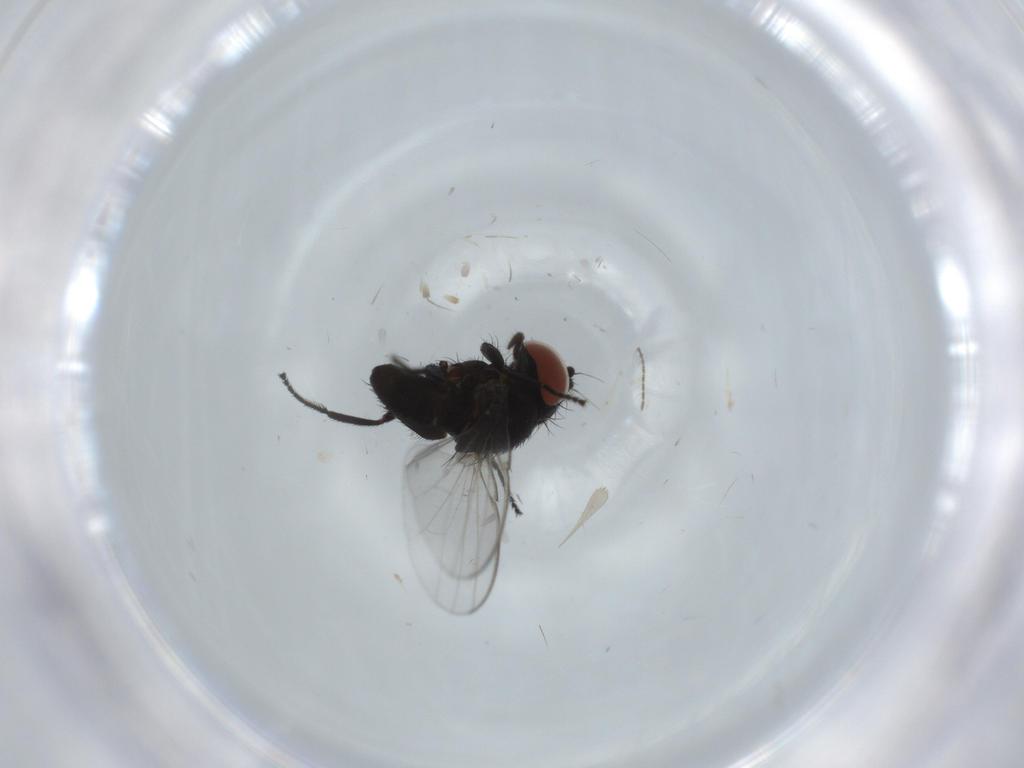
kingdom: Animalia
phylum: Arthropoda
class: Insecta
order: Diptera
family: Milichiidae
